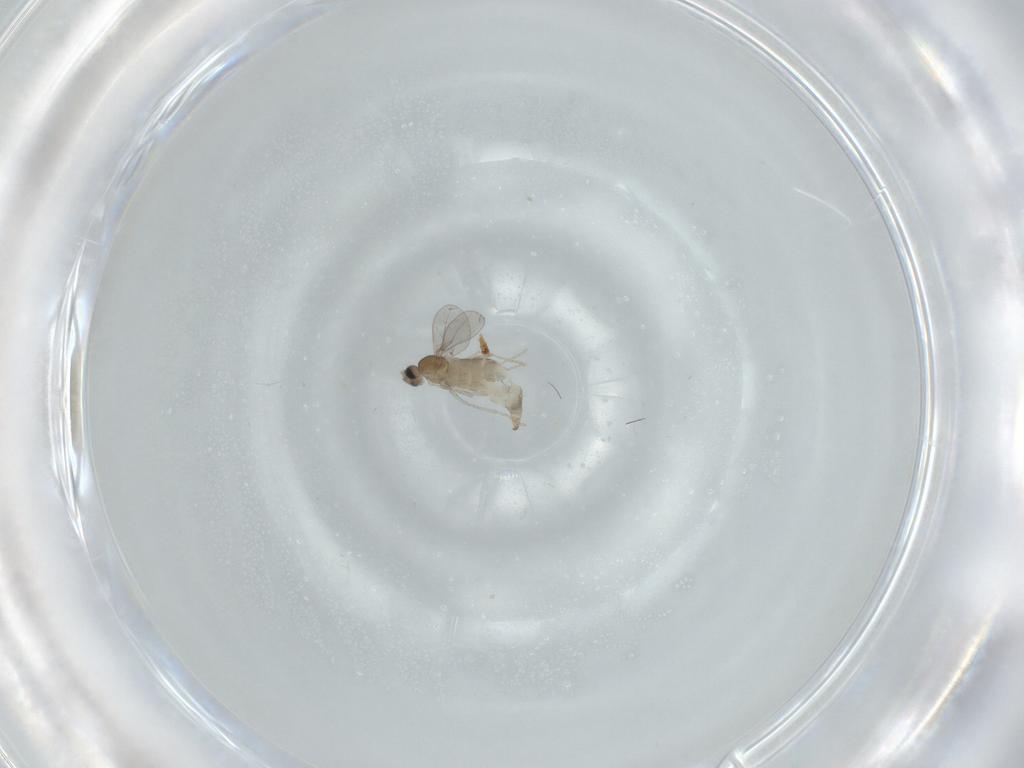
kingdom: Animalia
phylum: Arthropoda
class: Insecta
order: Diptera
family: Cecidomyiidae
